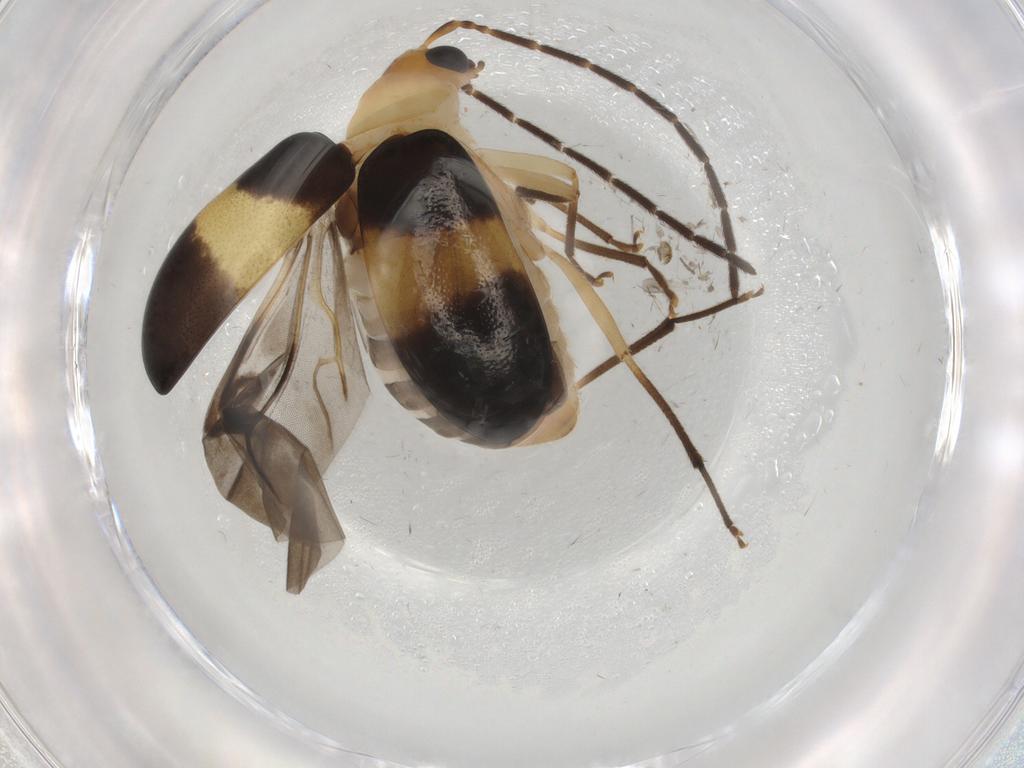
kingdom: Animalia
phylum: Arthropoda
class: Insecta
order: Coleoptera
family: Chrysomelidae
